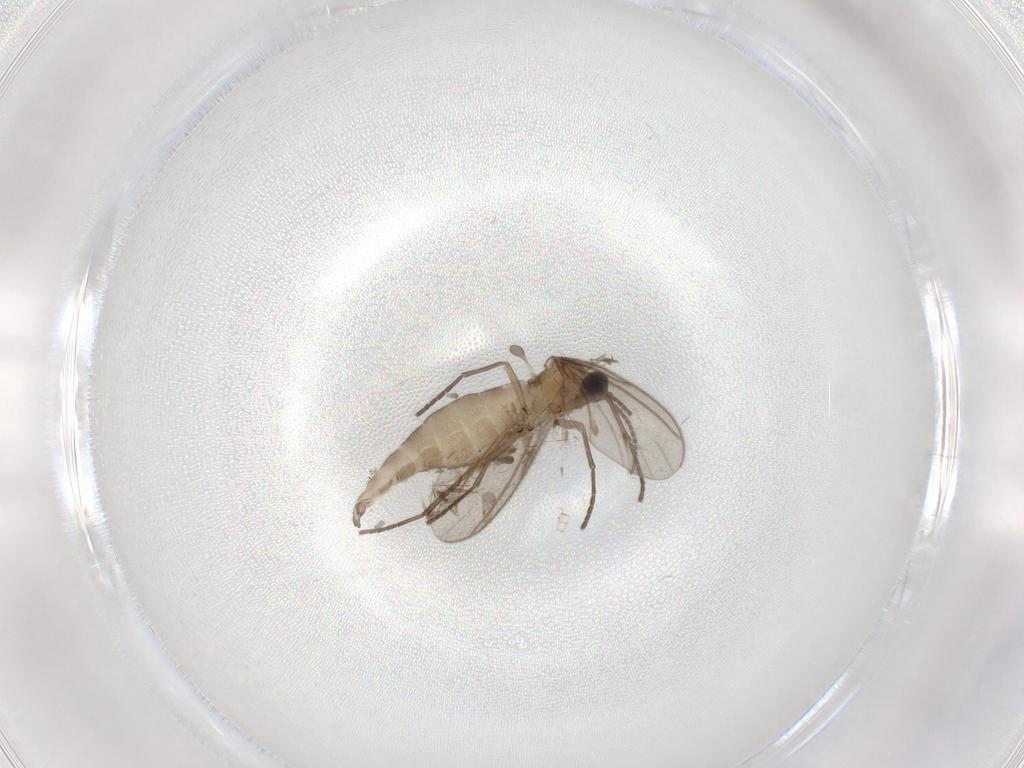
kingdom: Animalia
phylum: Arthropoda
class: Insecta
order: Diptera
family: Sciaridae
